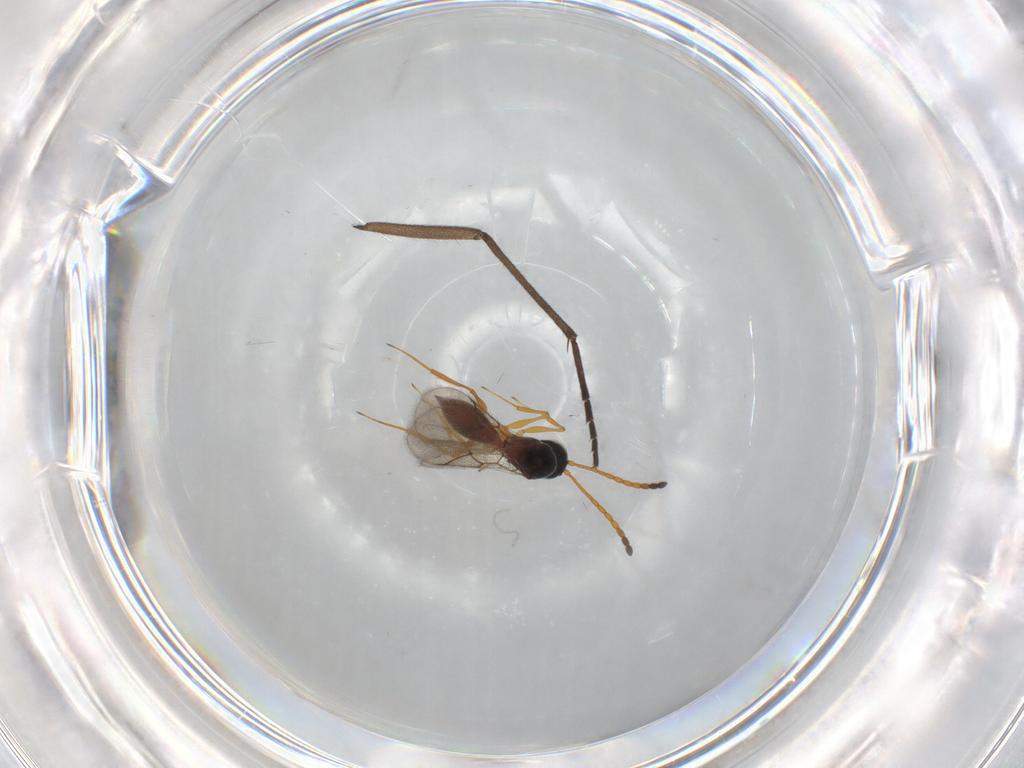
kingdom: Animalia
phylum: Arthropoda
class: Insecta
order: Hymenoptera
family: Figitidae
